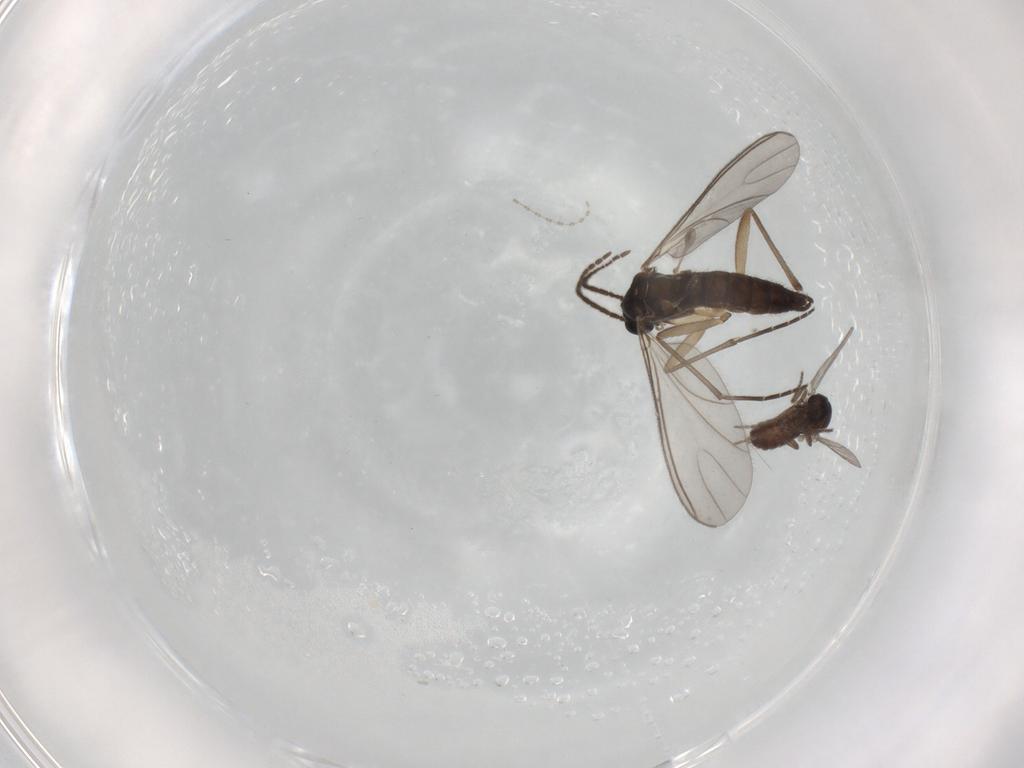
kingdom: Animalia
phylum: Arthropoda
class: Insecta
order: Diptera
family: Ceratopogonidae
